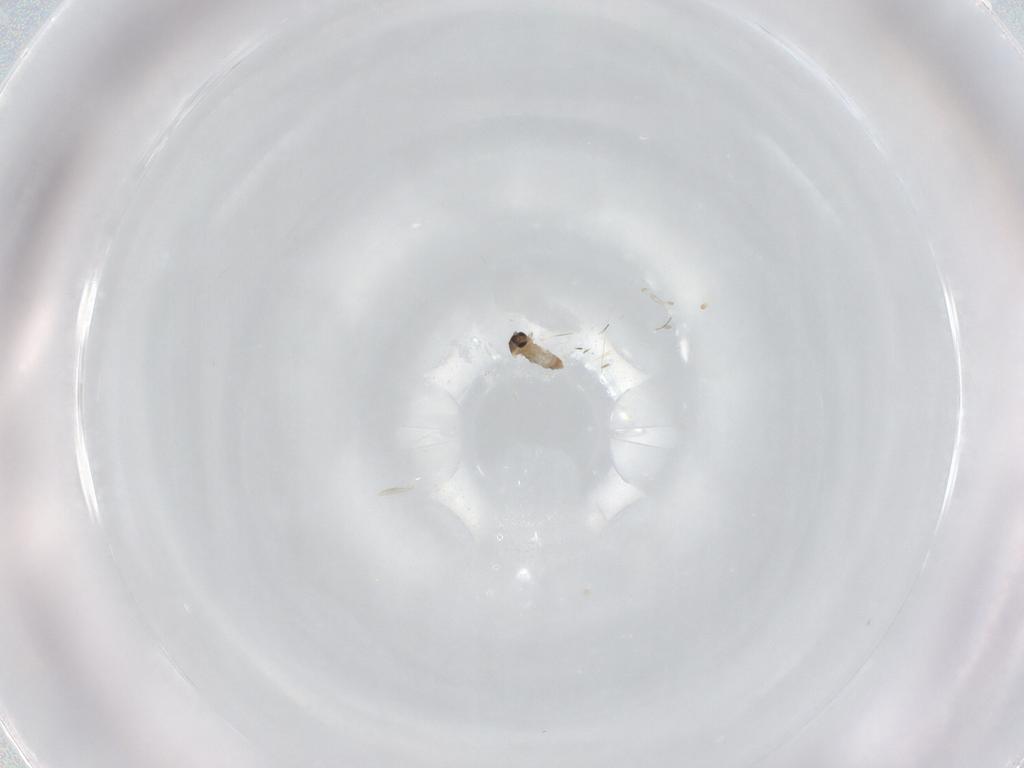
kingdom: Animalia
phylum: Arthropoda
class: Insecta
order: Diptera
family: Cecidomyiidae
